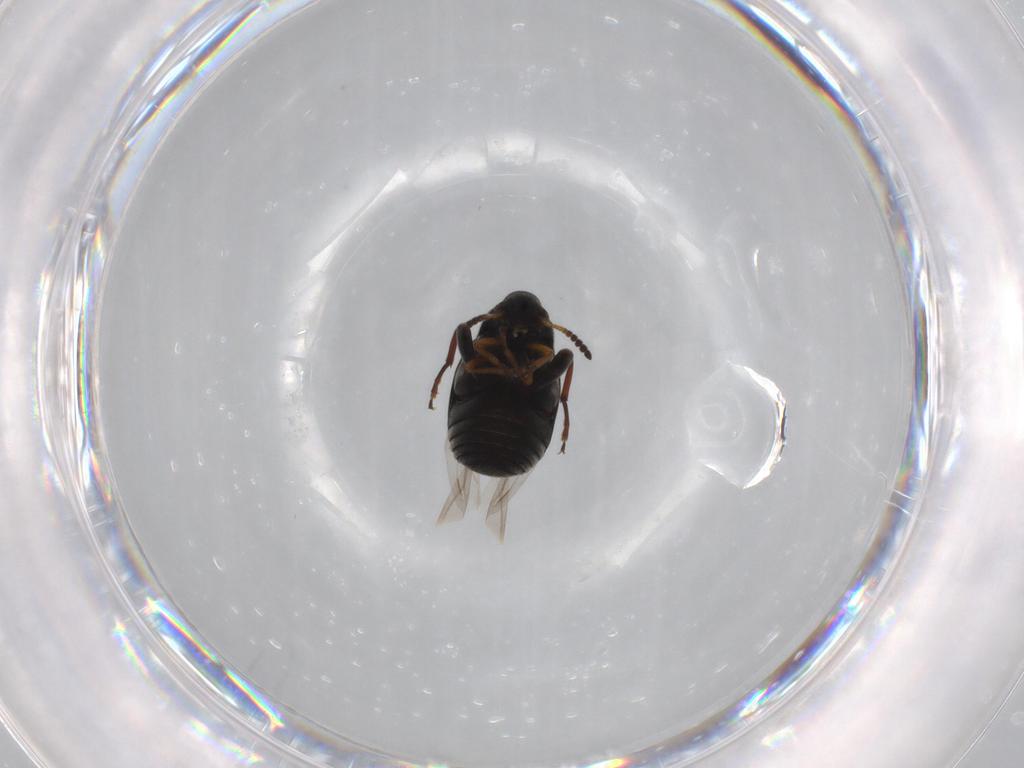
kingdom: Animalia
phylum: Arthropoda
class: Insecta
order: Coleoptera
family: Chrysomelidae
